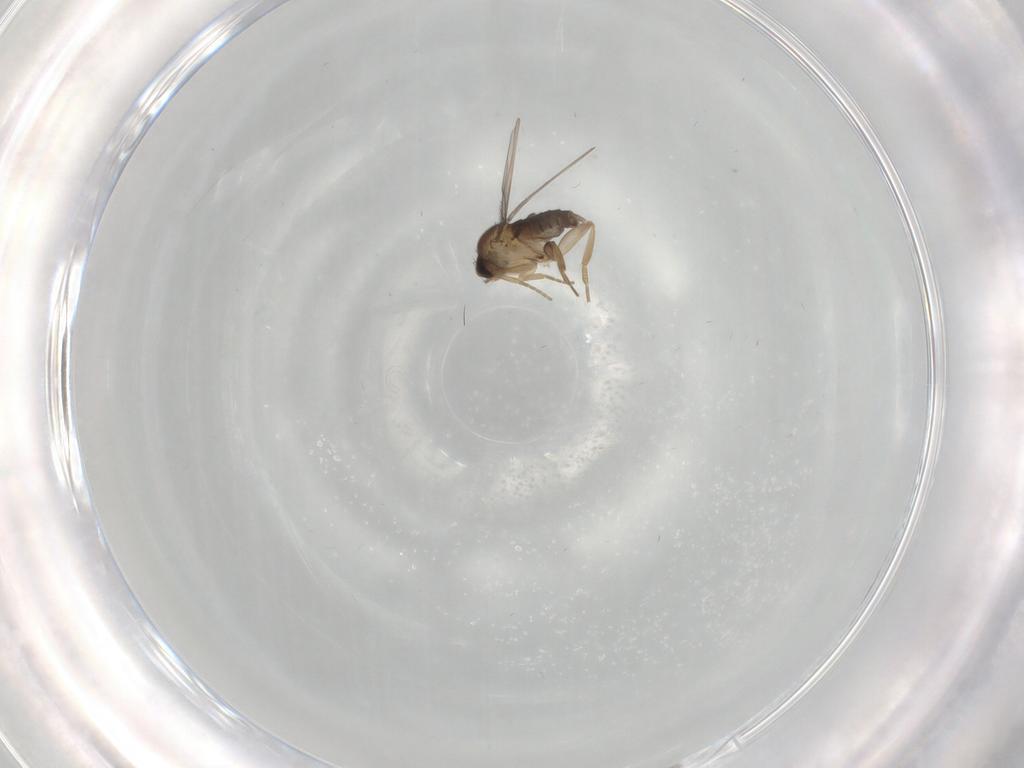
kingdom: Animalia
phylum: Arthropoda
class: Insecta
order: Diptera
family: Phoridae
